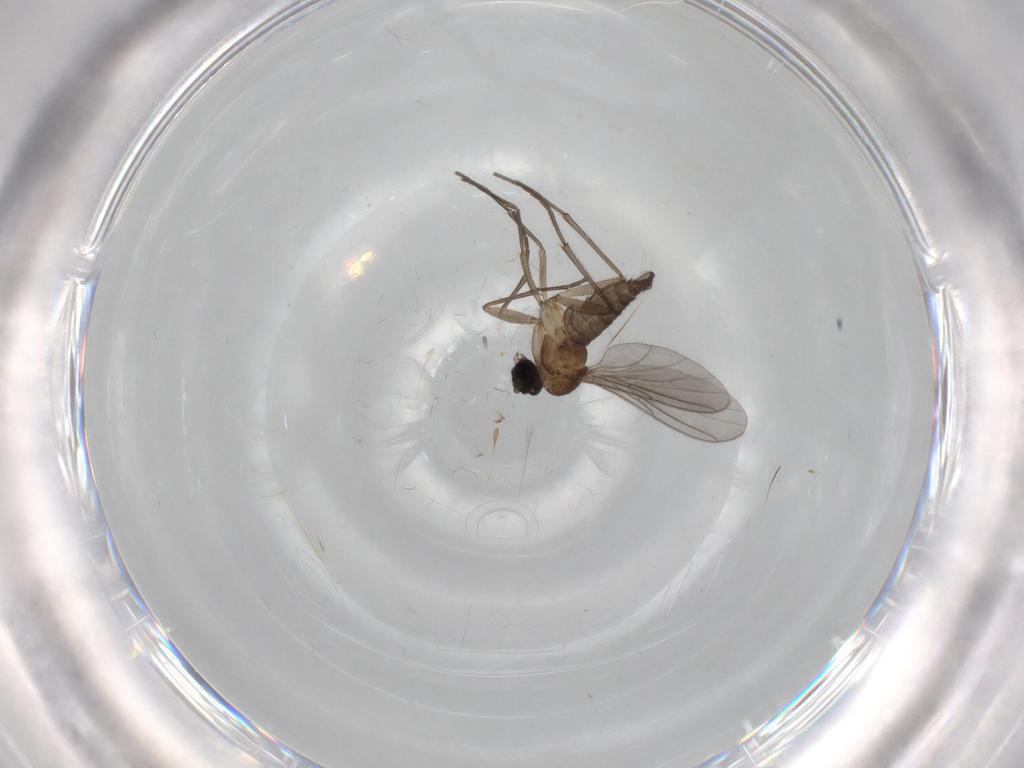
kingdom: Animalia
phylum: Arthropoda
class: Insecta
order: Diptera
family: Sciaridae
